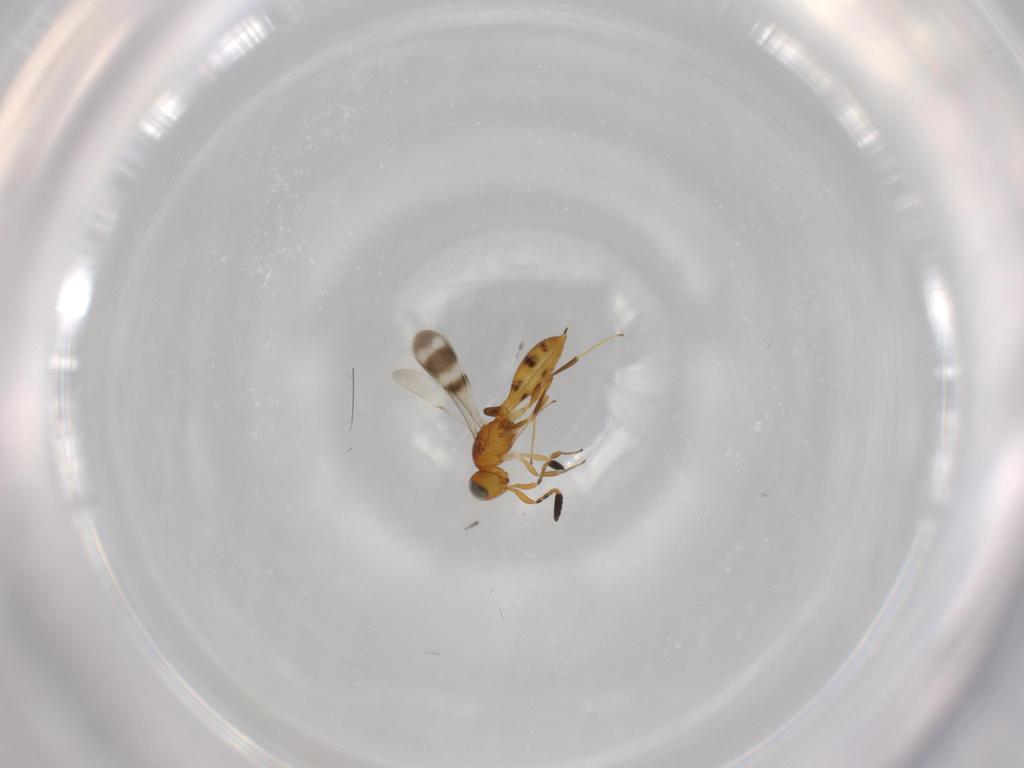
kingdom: Animalia
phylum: Arthropoda
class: Insecta
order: Hymenoptera
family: Scelionidae
